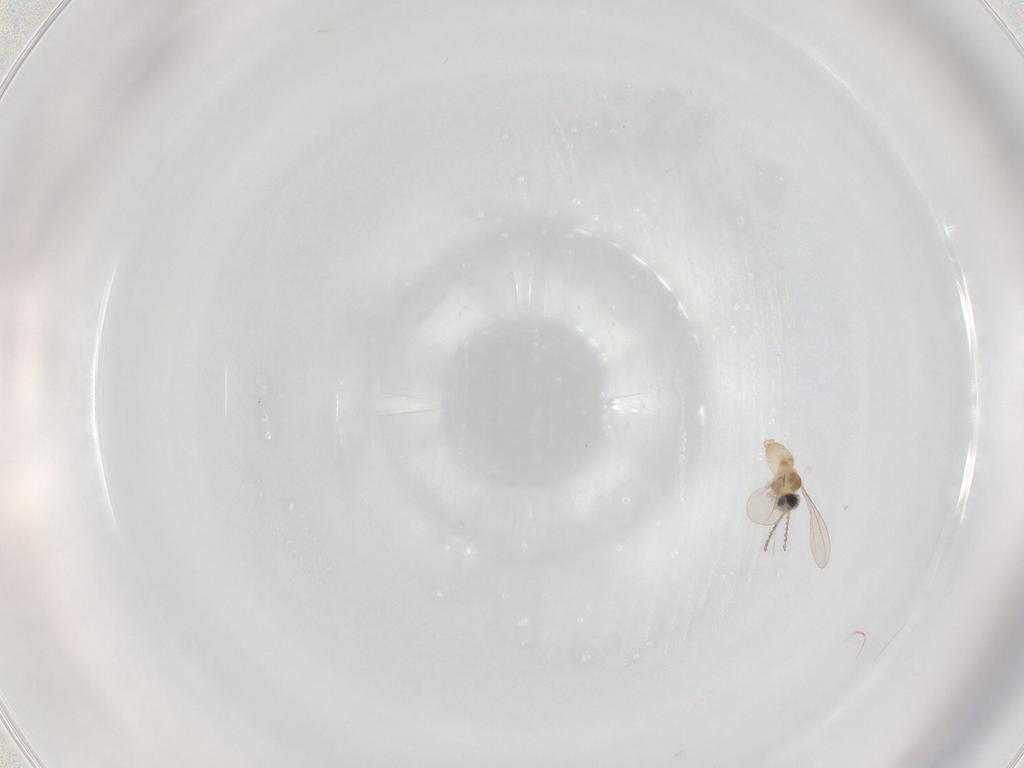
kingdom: Animalia
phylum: Arthropoda
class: Insecta
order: Diptera
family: Cecidomyiidae
